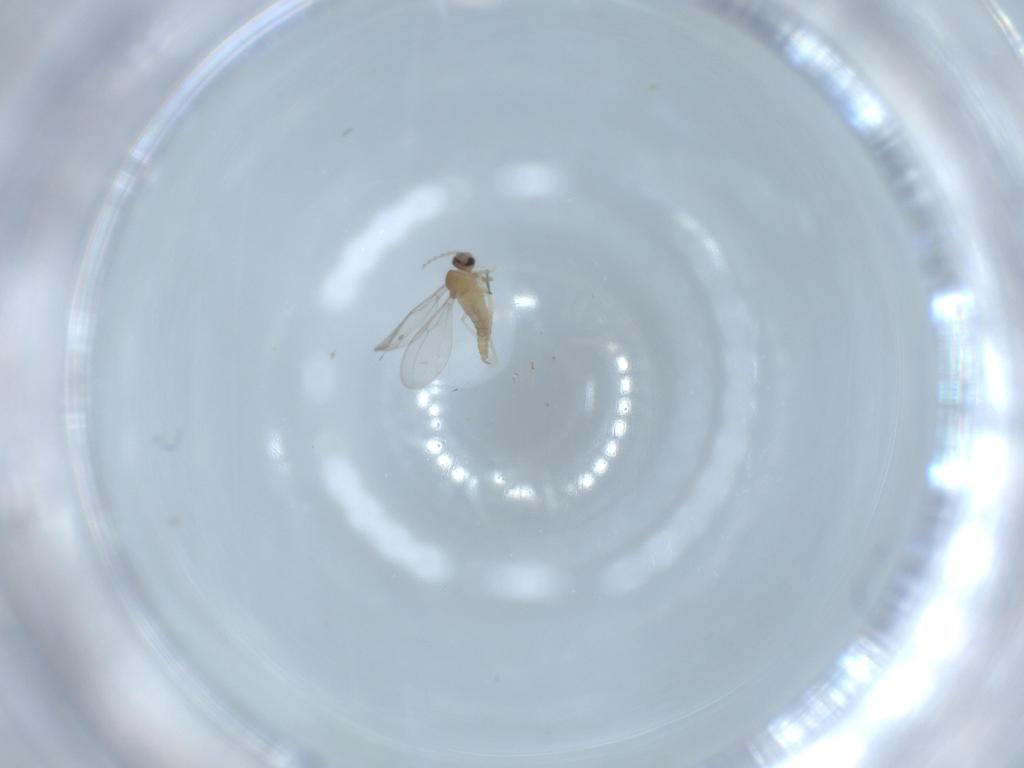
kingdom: Animalia
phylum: Arthropoda
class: Insecta
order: Diptera
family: Cecidomyiidae
